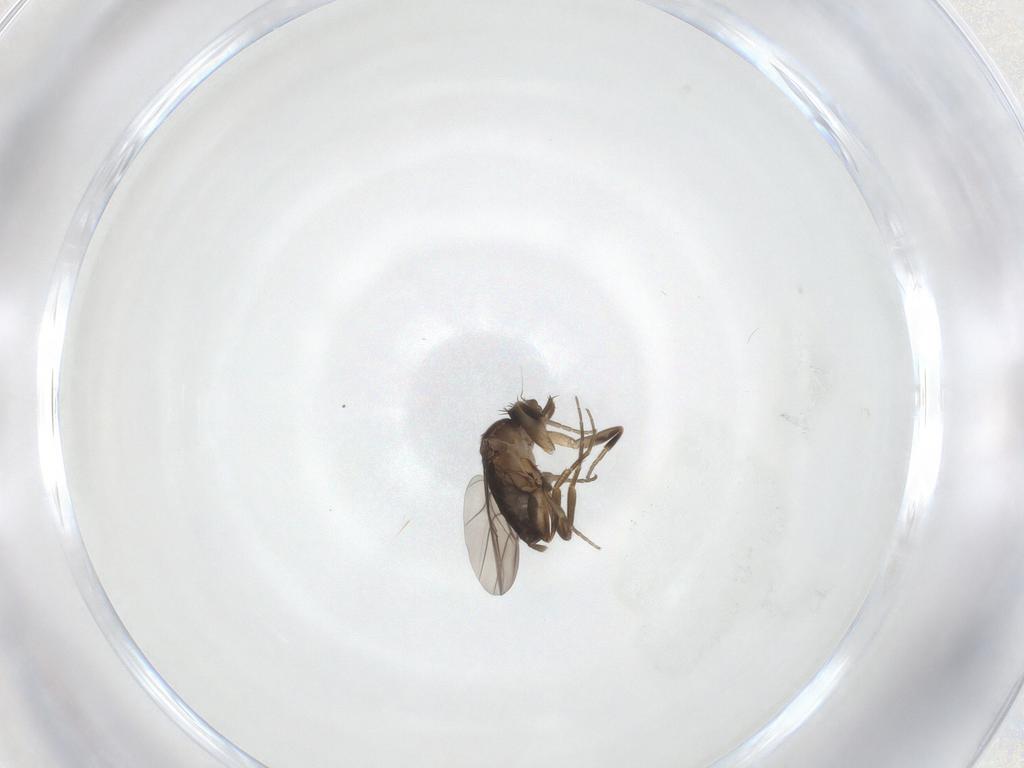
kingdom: Animalia
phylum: Arthropoda
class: Insecta
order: Diptera
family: Phoridae
